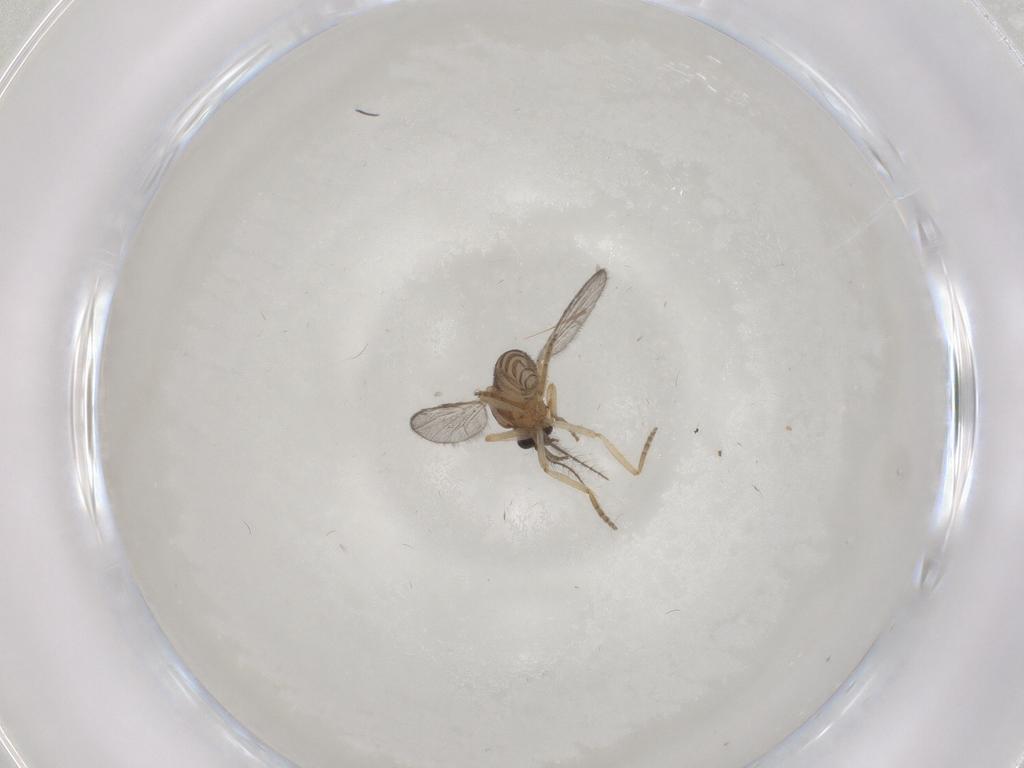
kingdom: Animalia
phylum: Arthropoda
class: Insecta
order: Diptera
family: Ceratopogonidae
